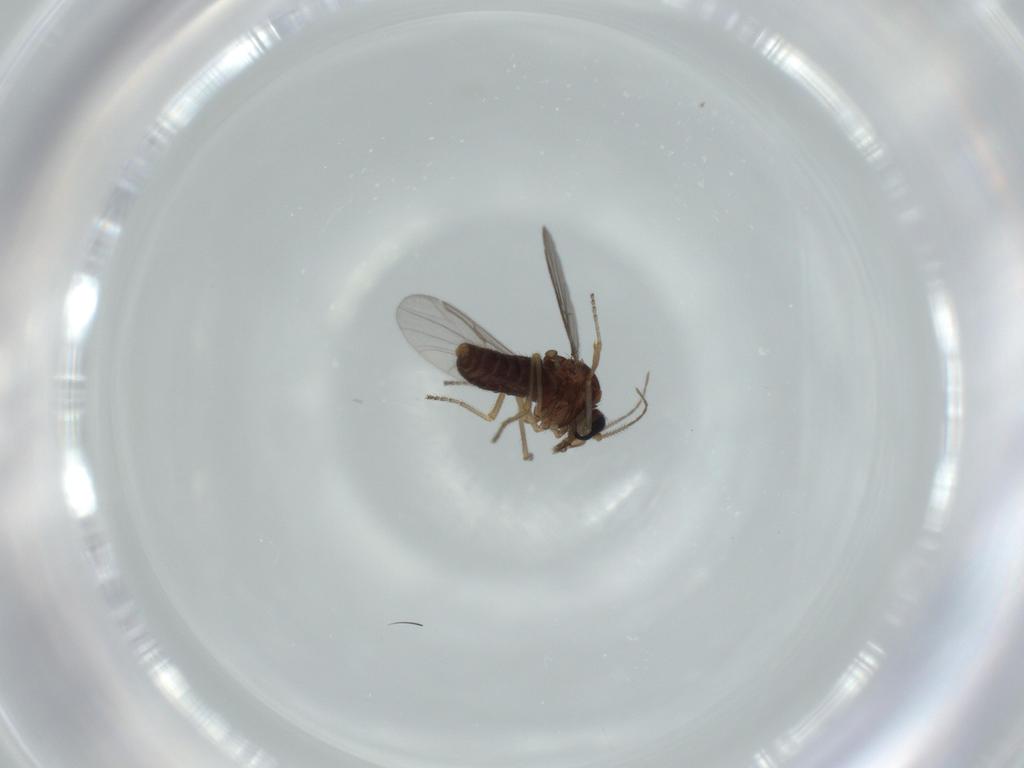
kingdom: Animalia
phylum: Arthropoda
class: Insecta
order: Diptera
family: Ceratopogonidae
